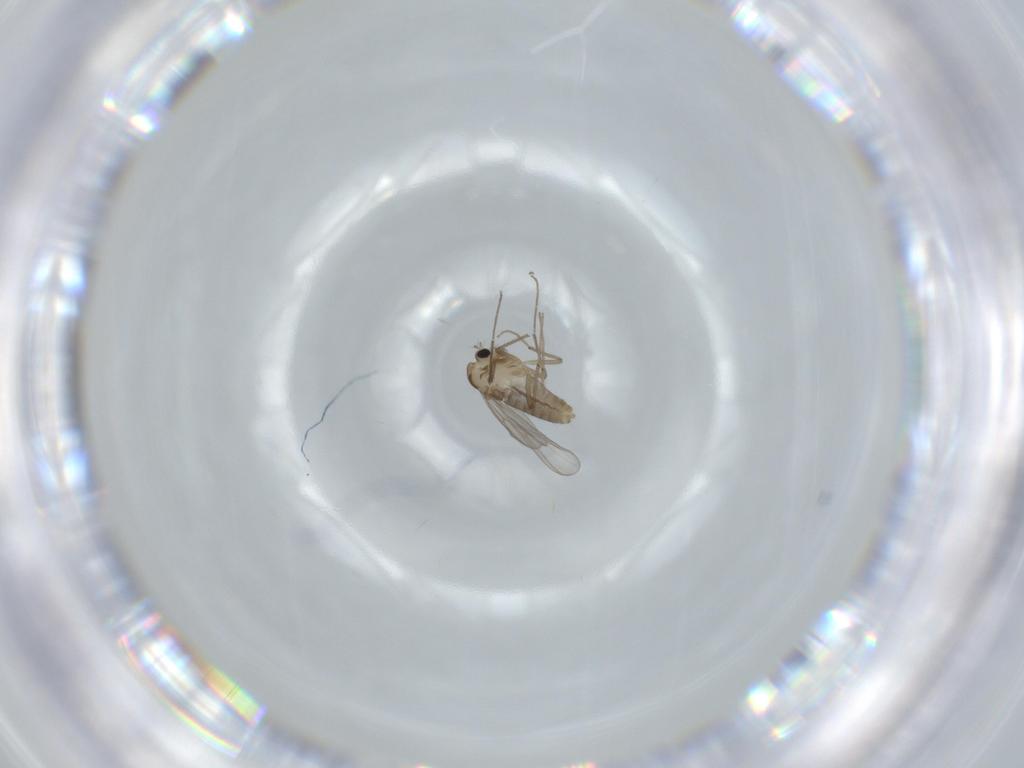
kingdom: Animalia
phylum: Arthropoda
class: Insecta
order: Diptera
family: Chironomidae
